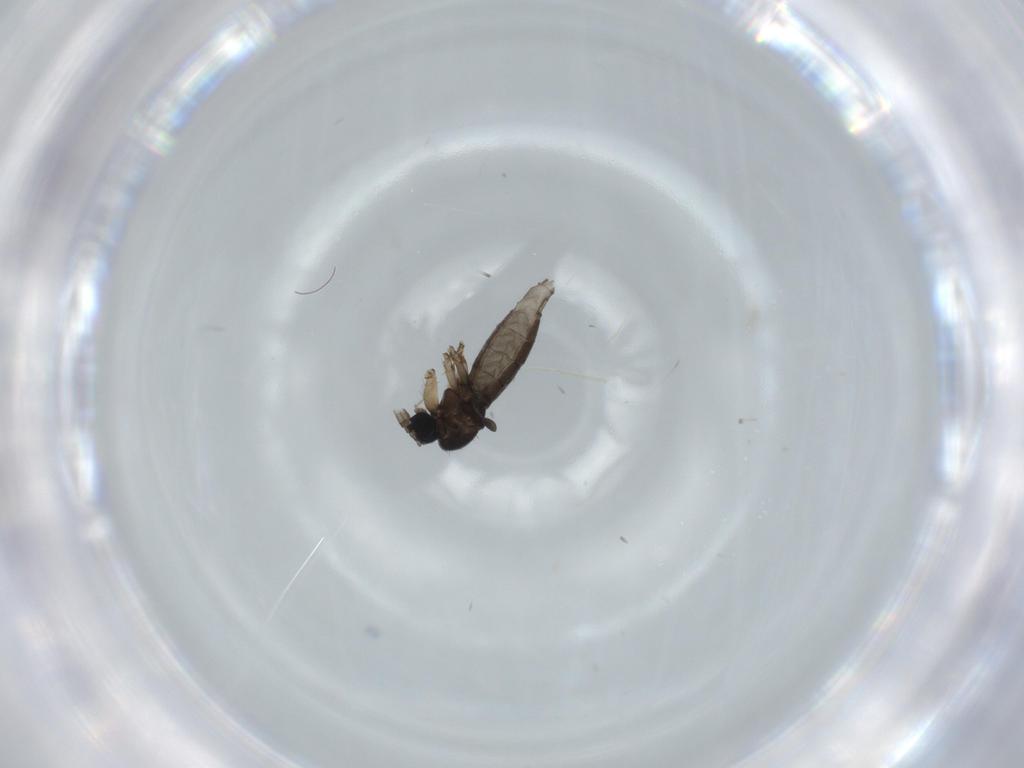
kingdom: Animalia
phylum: Arthropoda
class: Insecta
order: Diptera
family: Sciaridae
